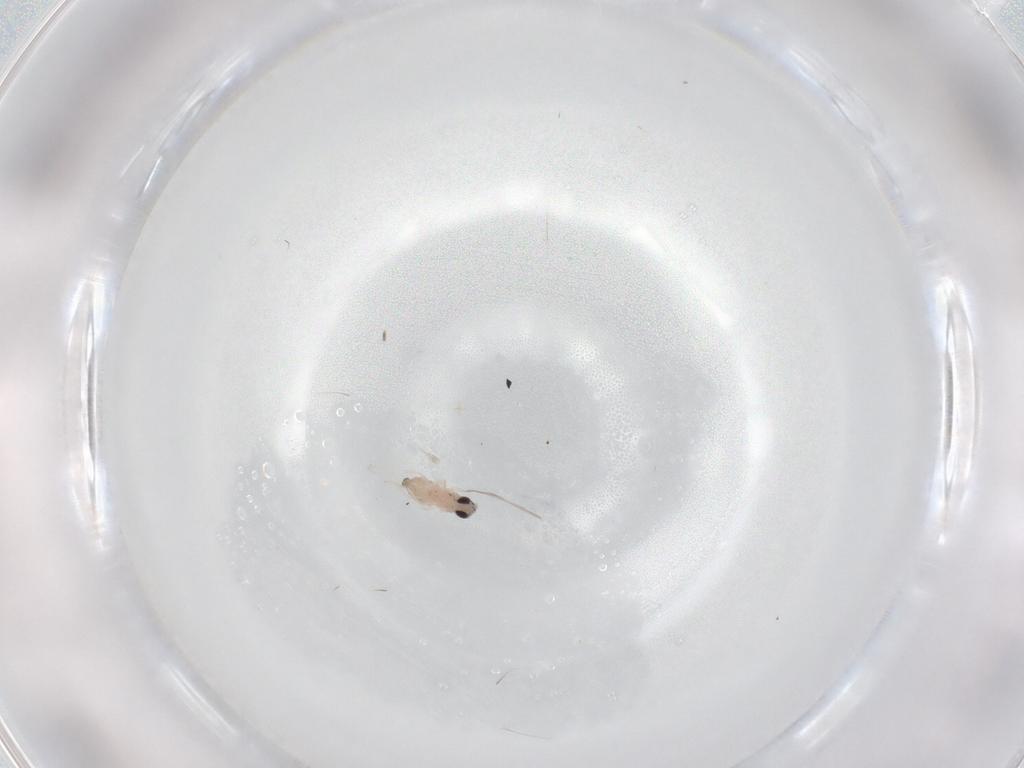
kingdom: Animalia
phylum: Arthropoda
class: Insecta
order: Diptera
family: Cecidomyiidae
